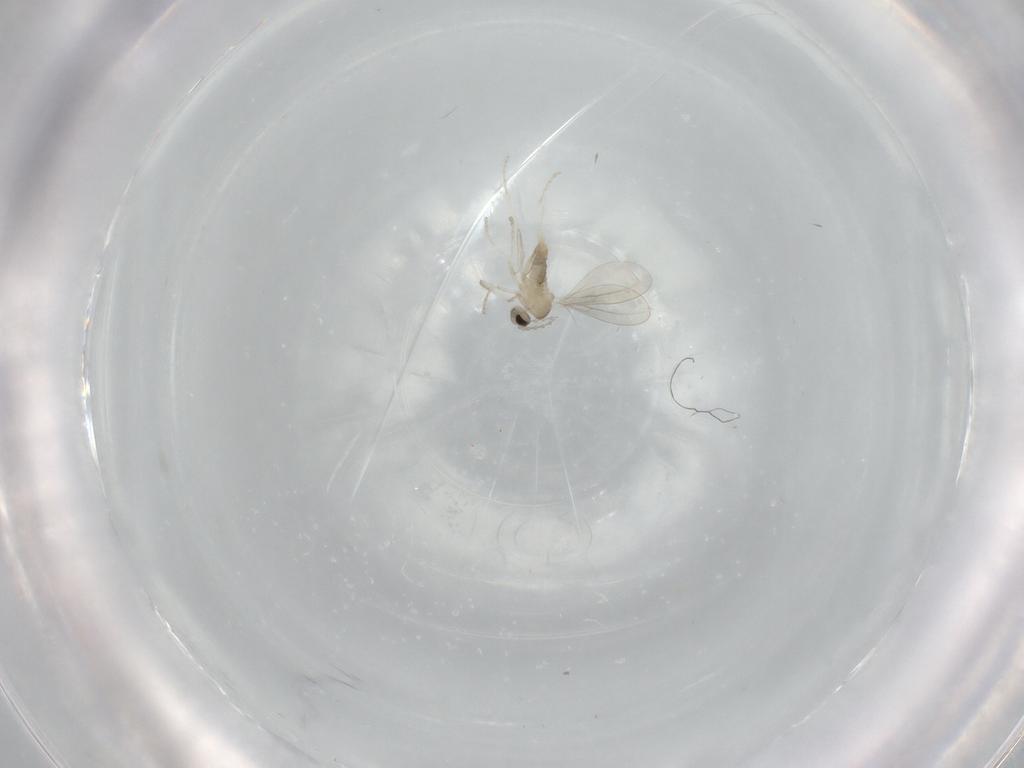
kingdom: Animalia
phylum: Arthropoda
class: Insecta
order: Diptera
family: Cecidomyiidae
